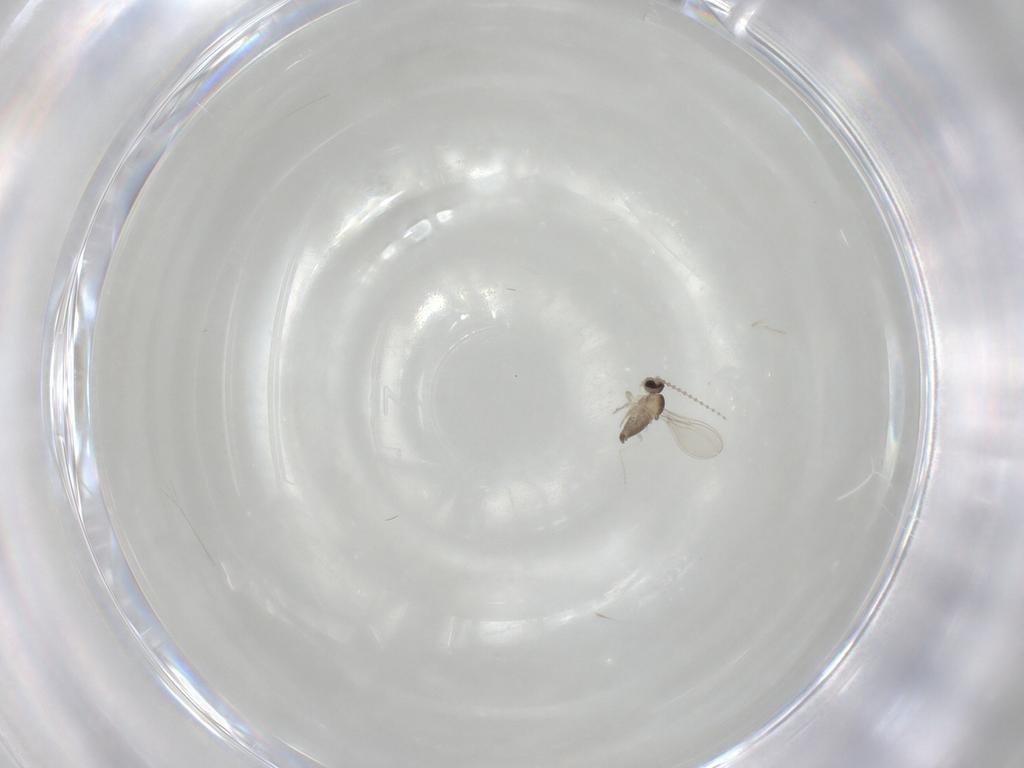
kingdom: Animalia
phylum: Arthropoda
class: Insecta
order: Diptera
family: Cecidomyiidae
